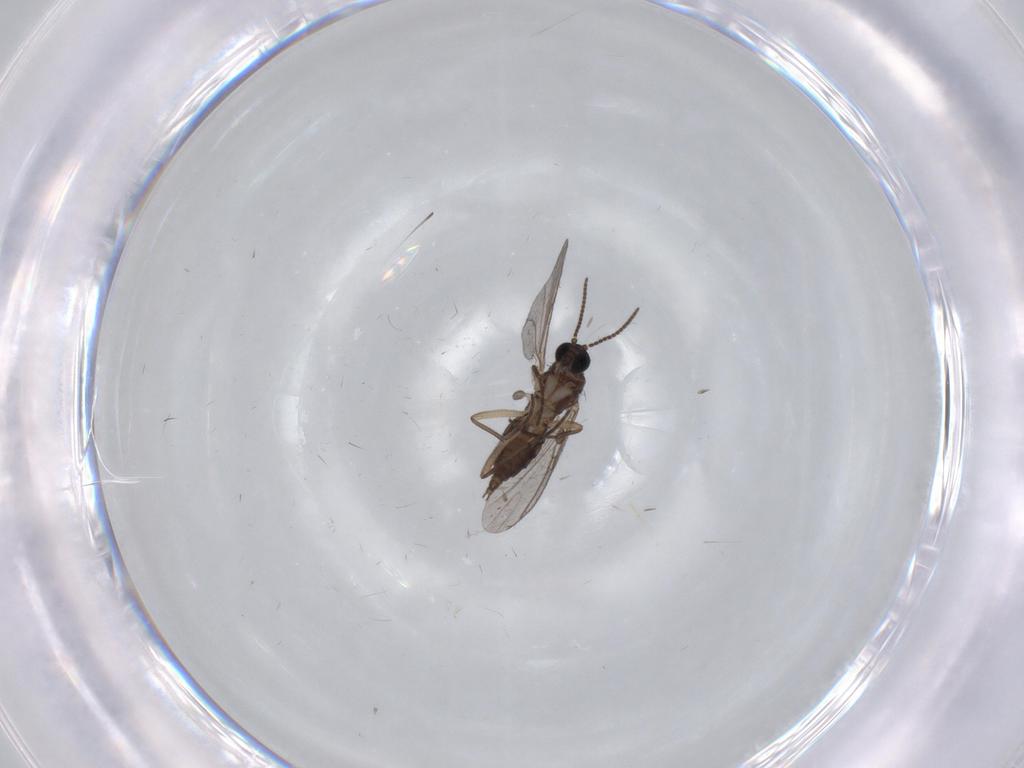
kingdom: Animalia
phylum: Arthropoda
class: Insecta
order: Diptera
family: Sciaridae
